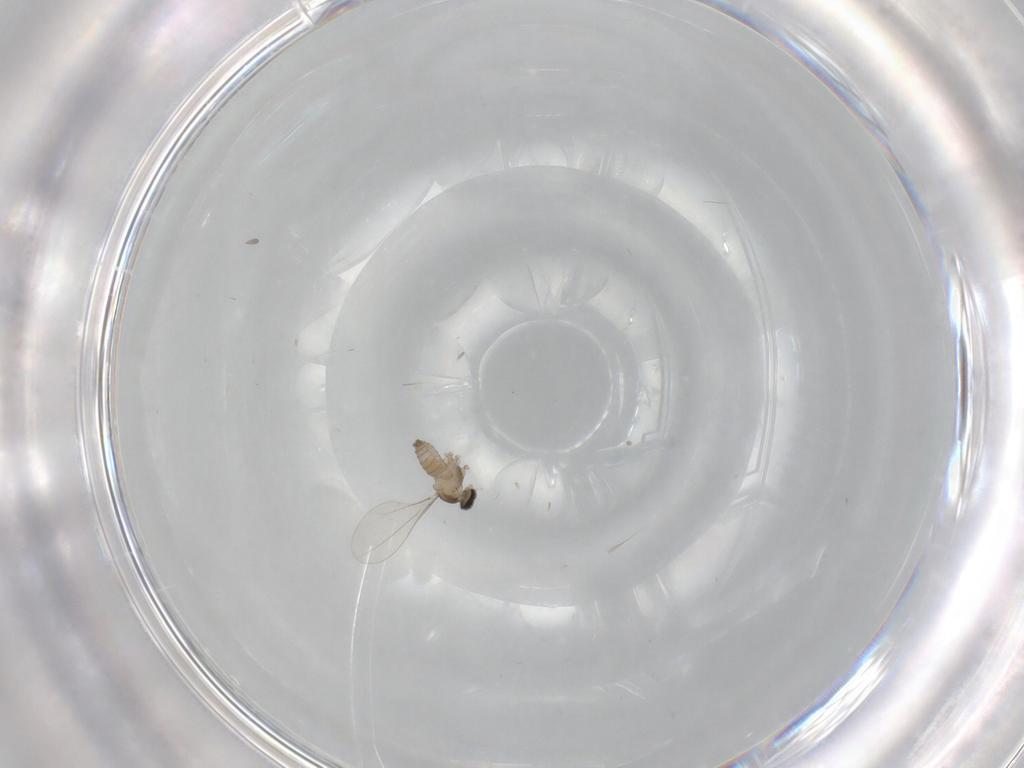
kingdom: Animalia
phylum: Arthropoda
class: Insecta
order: Diptera
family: Cecidomyiidae
